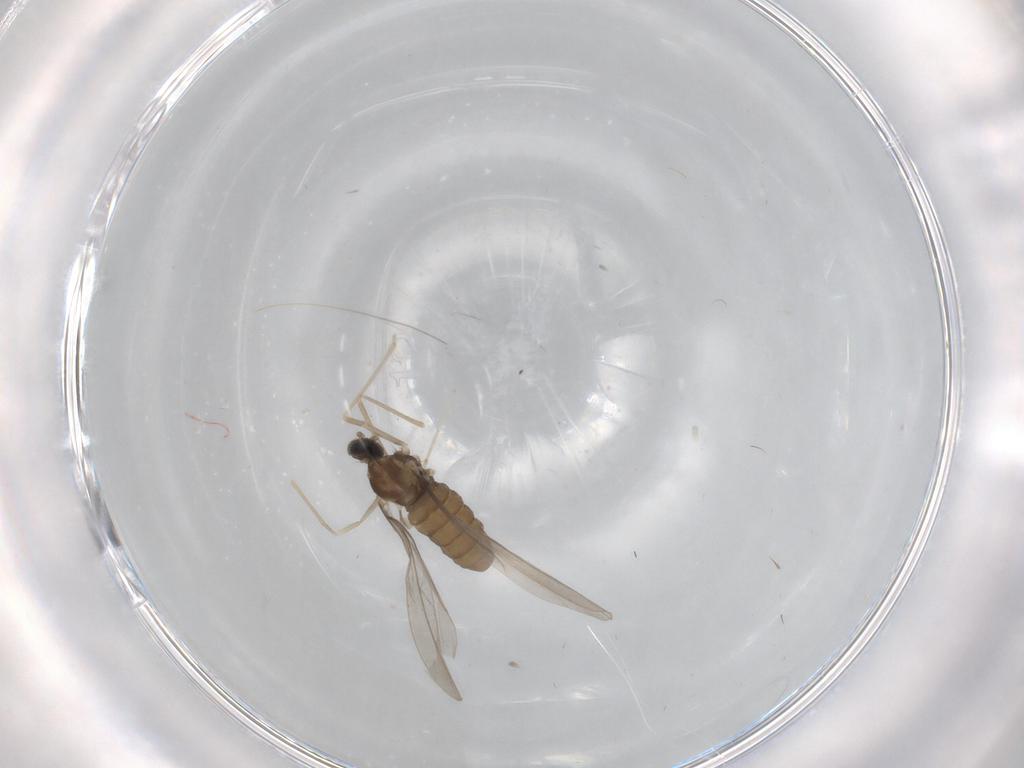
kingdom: Animalia
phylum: Arthropoda
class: Insecta
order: Diptera
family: Cecidomyiidae
